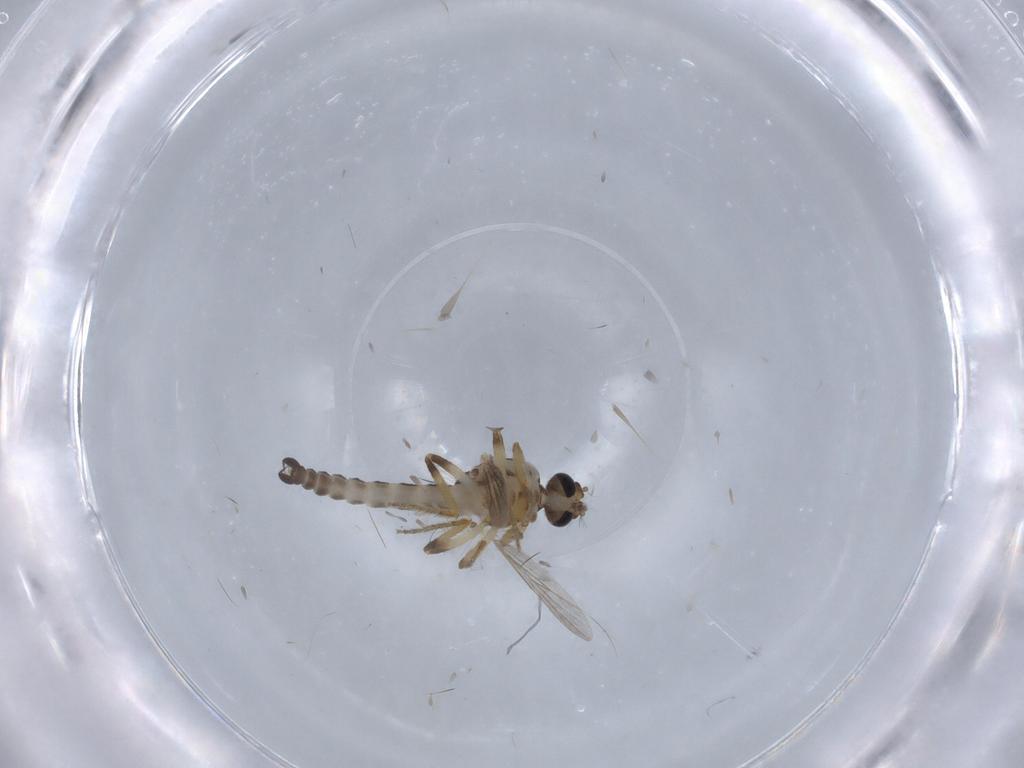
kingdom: Animalia
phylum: Arthropoda
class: Insecta
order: Diptera
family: Ceratopogonidae
